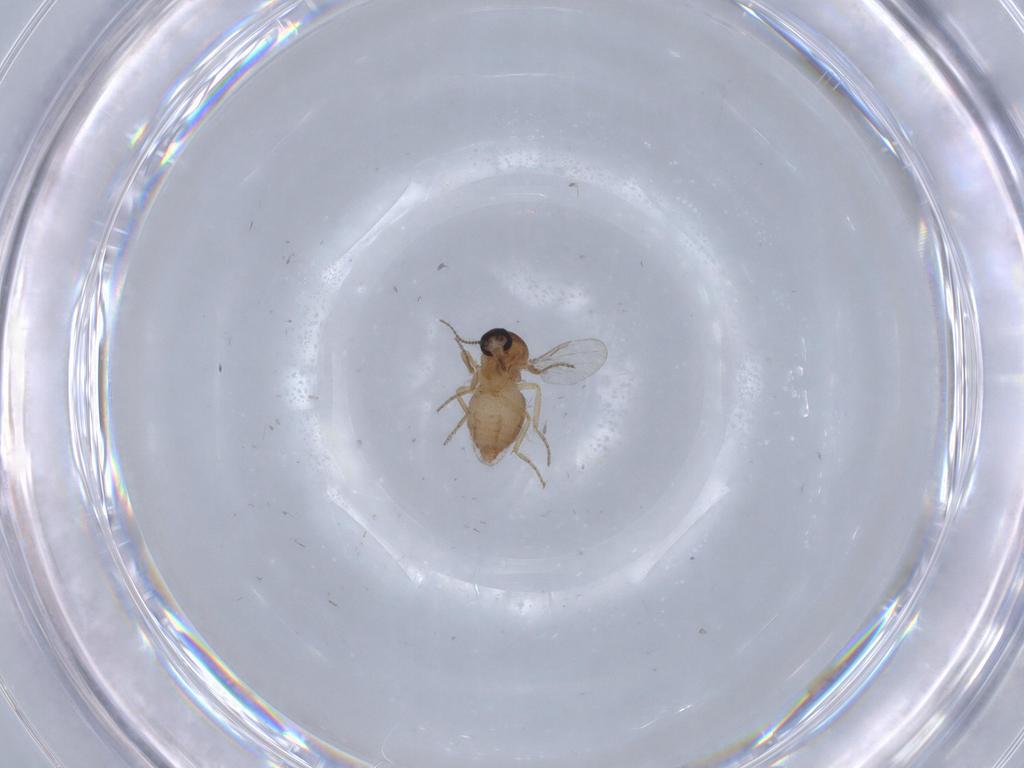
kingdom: Animalia
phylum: Arthropoda
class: Insecta
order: Diptera
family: Ceratopogonidae
